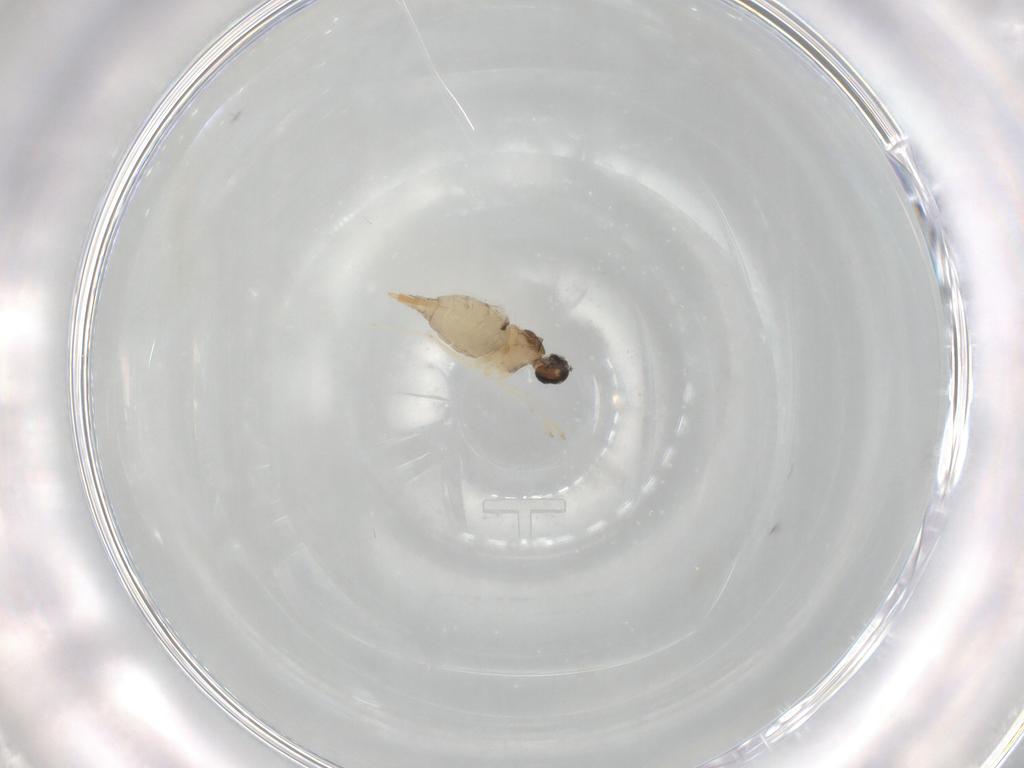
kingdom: Animalia
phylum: Arthropoda
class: Insecta
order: Diptera
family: Cecidomyiidae
